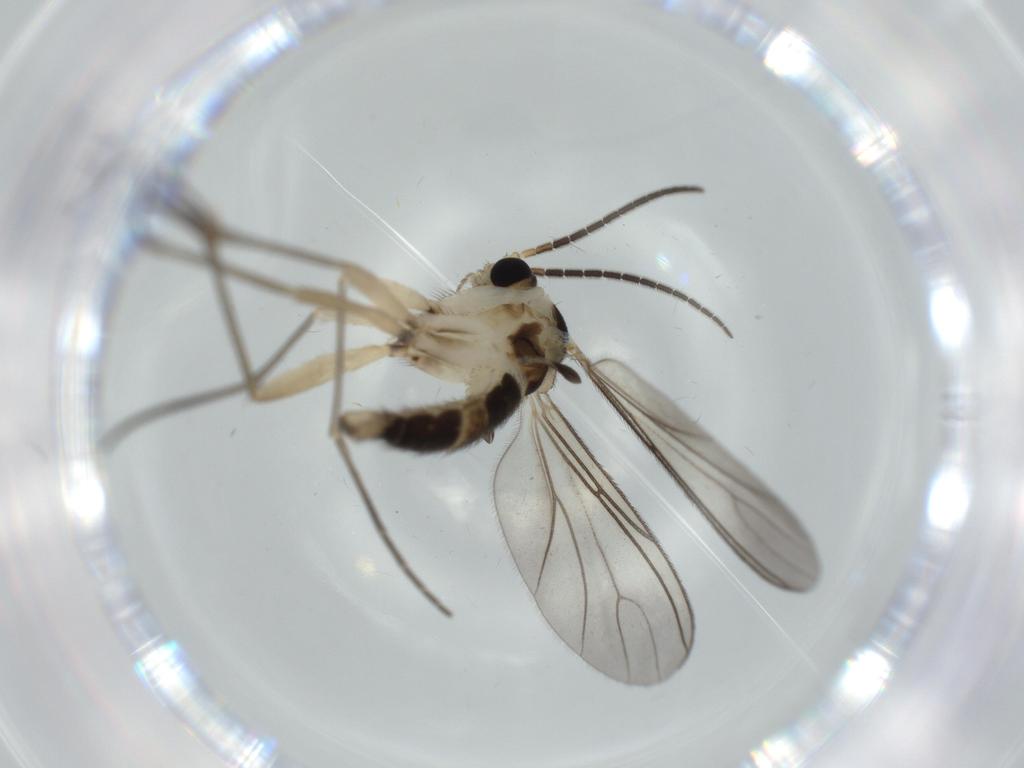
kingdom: Animalia
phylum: Arthropoda
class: Insecta
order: Diptera
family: Sciaridae
